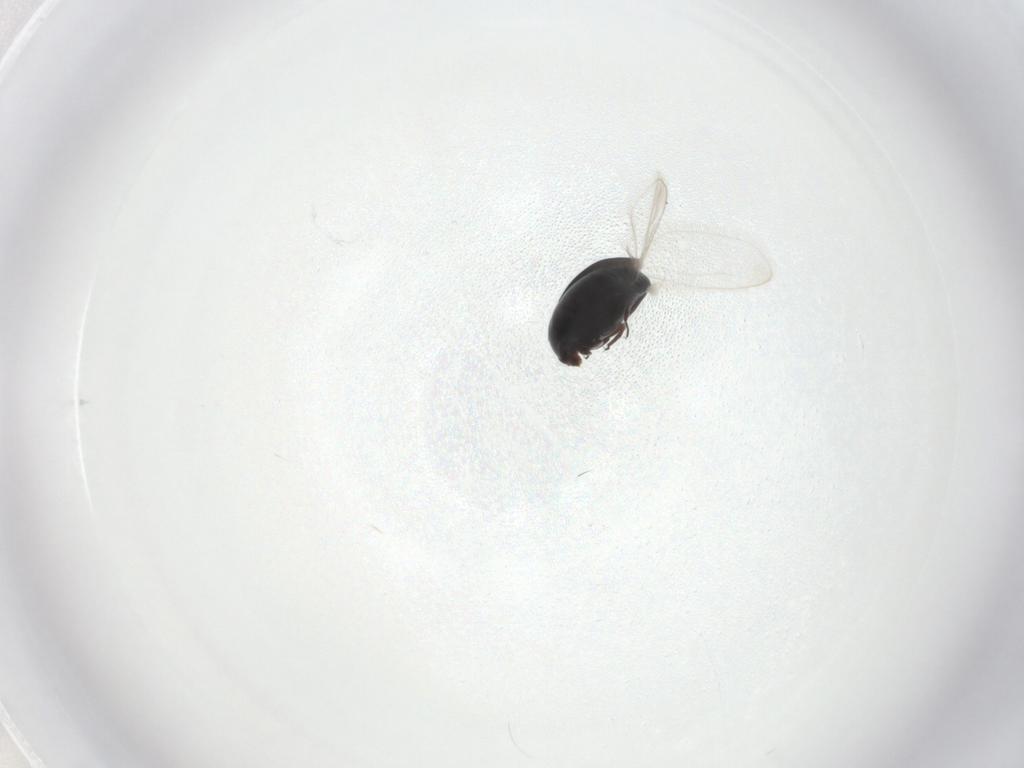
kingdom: Animalia
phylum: Arthropoda
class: Insecta
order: Coleoptera
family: Corylophidae
